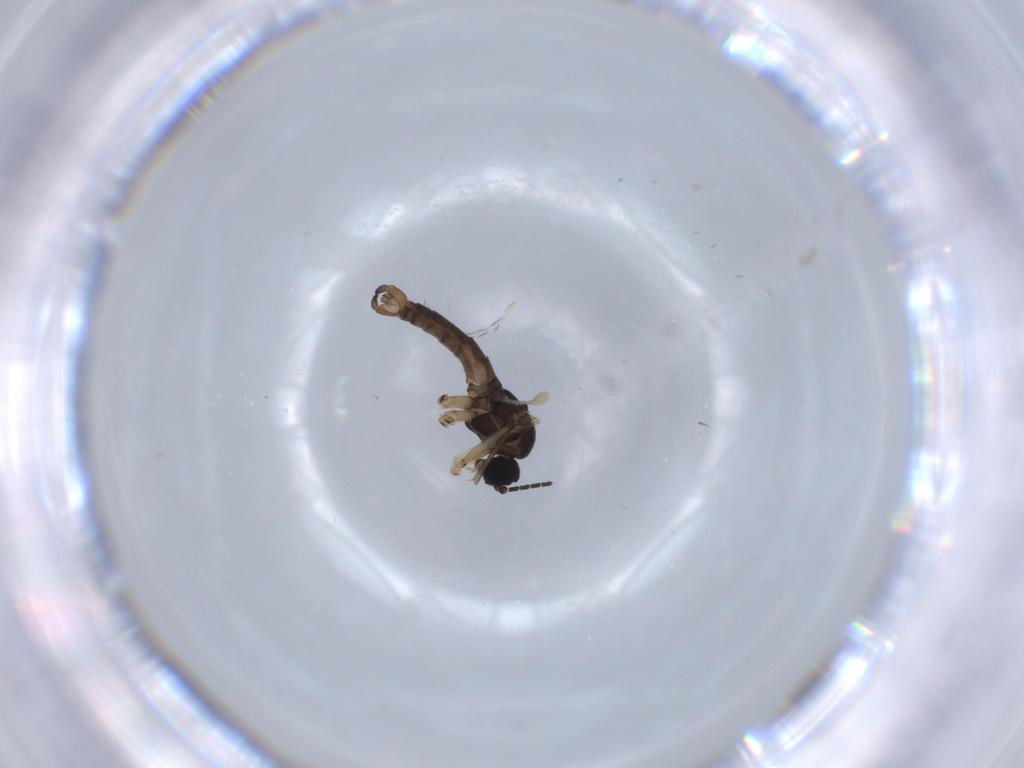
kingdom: Animalia
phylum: Arthropoda
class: Insecta
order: Diptera
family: Sciaridae
